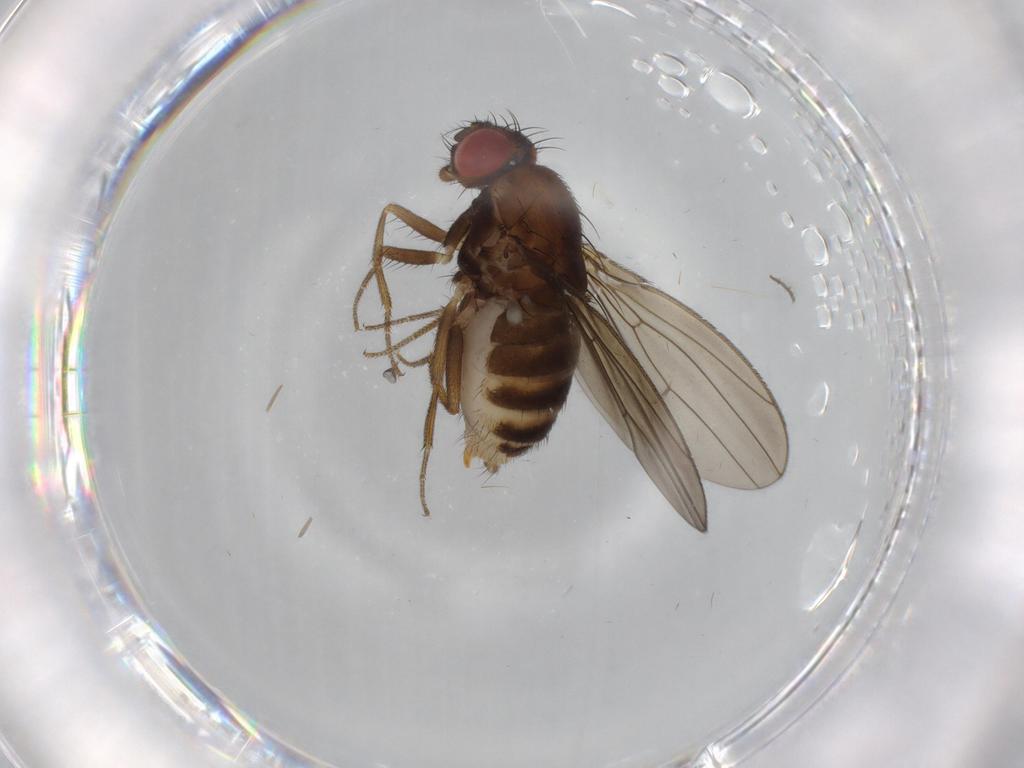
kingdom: Animalia
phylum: Arthropoda
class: Insecta
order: Diptera
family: Drosophilidae
